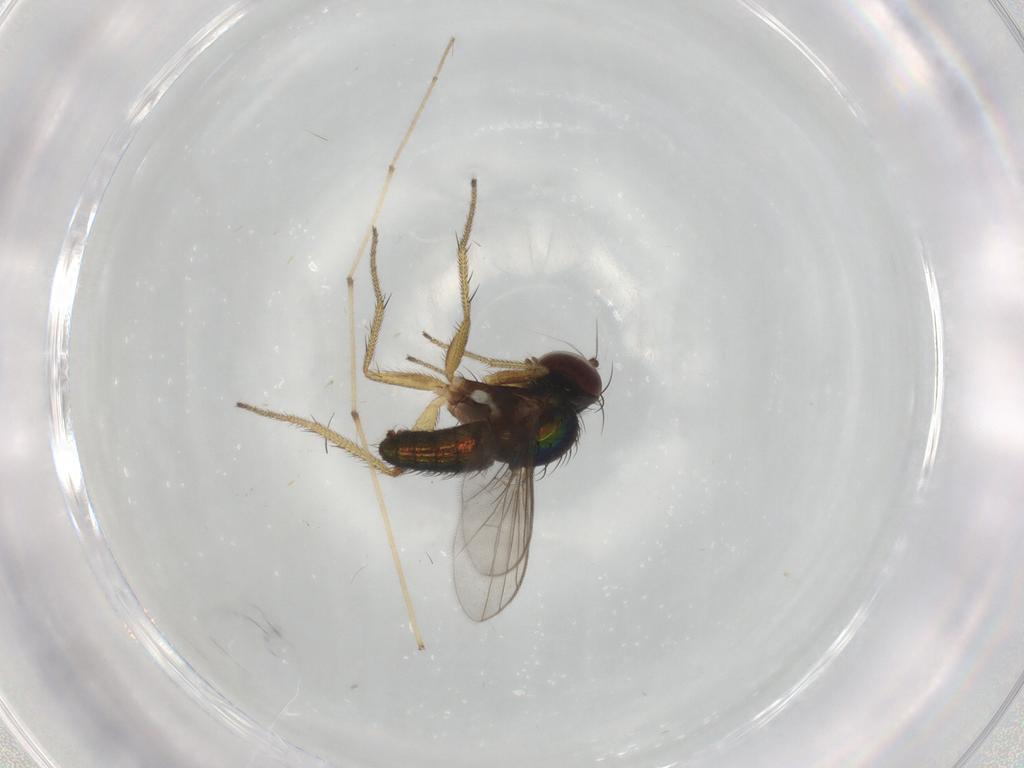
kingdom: Animalia
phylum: Arthropoda
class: Insecta
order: Diptera
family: Dolichopodidae
